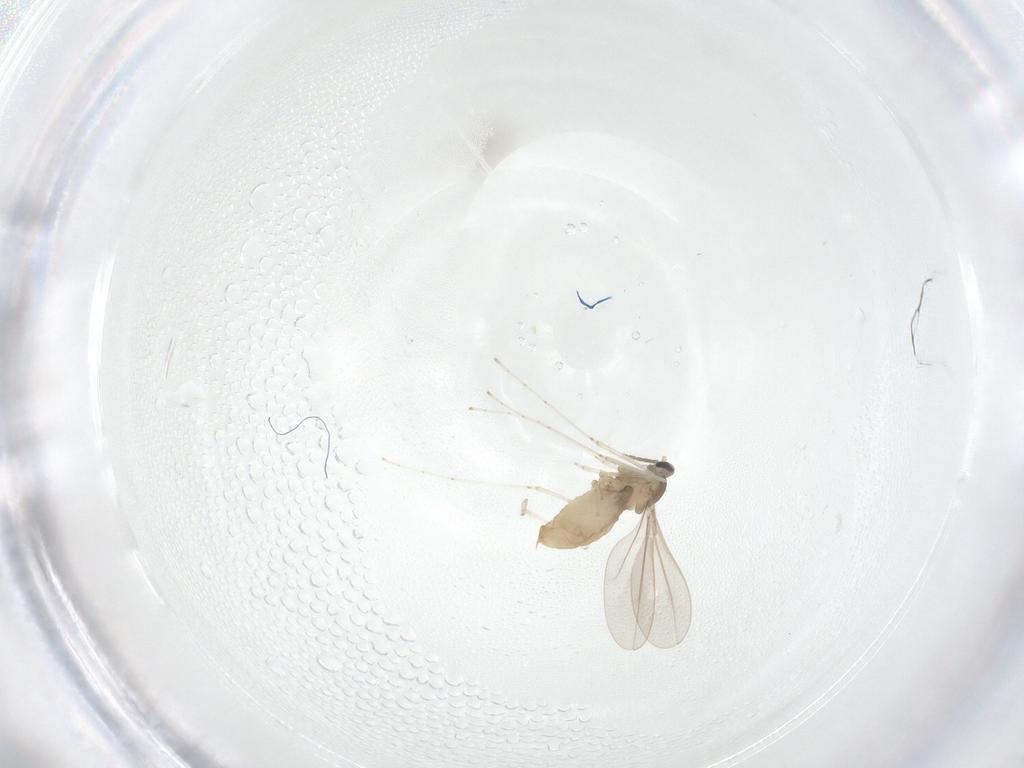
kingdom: Animalia
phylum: Arthropoda
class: Insecta
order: Diptera
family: Cecidomyiidae
